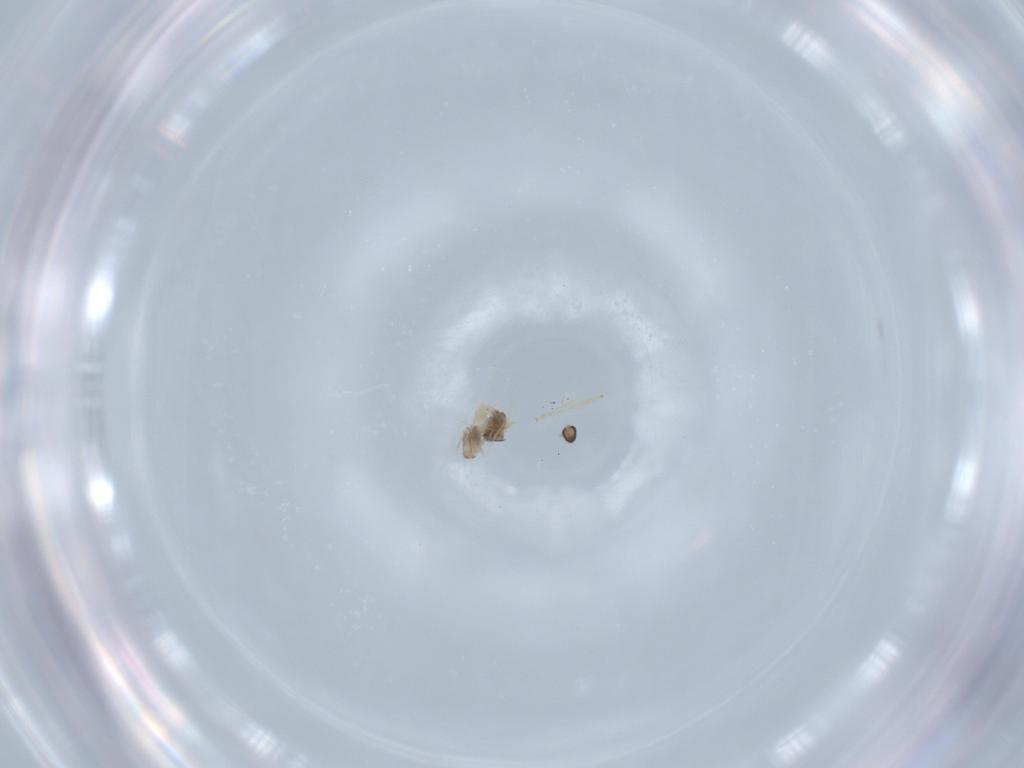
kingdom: Animalia
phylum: Arthropoda
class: Insecta
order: Diptera
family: Cecidomyiidae
